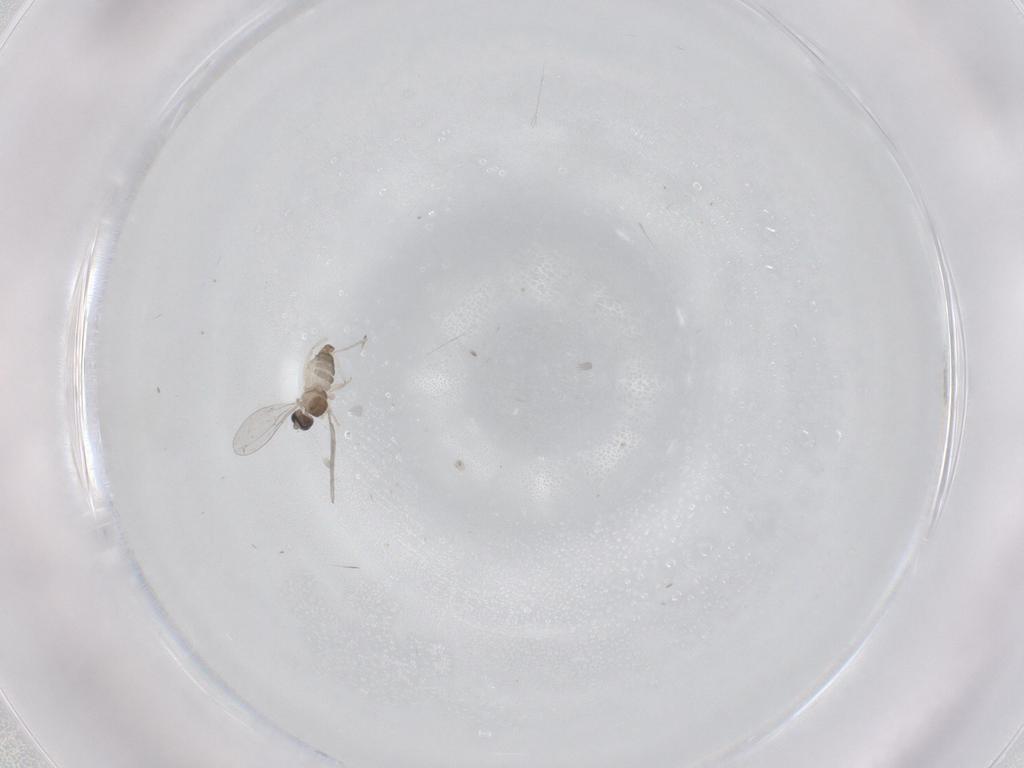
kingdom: Animalia
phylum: Arthropoda
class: Insecta
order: Diptera
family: Cecidomyiidae
